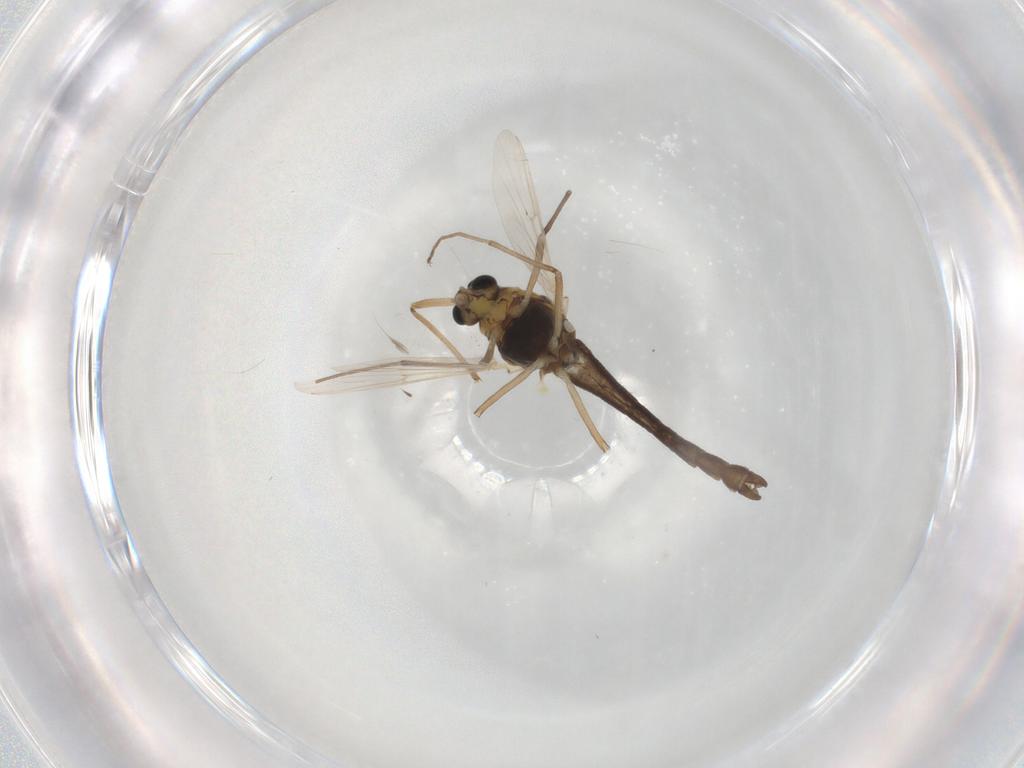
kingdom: Animalia
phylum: Arthropoda
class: Insecta
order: Diptera
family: Chironomidae
